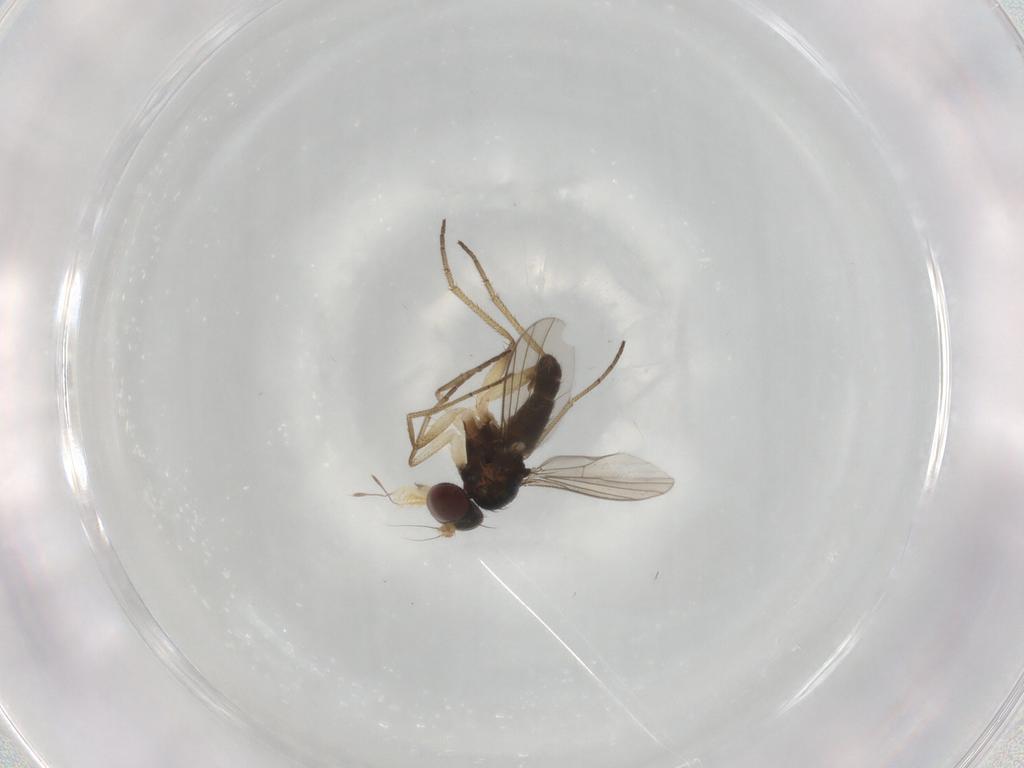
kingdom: Animalia
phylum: Arthropoda
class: Insecta
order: Diptera
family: Dolichopodidae
